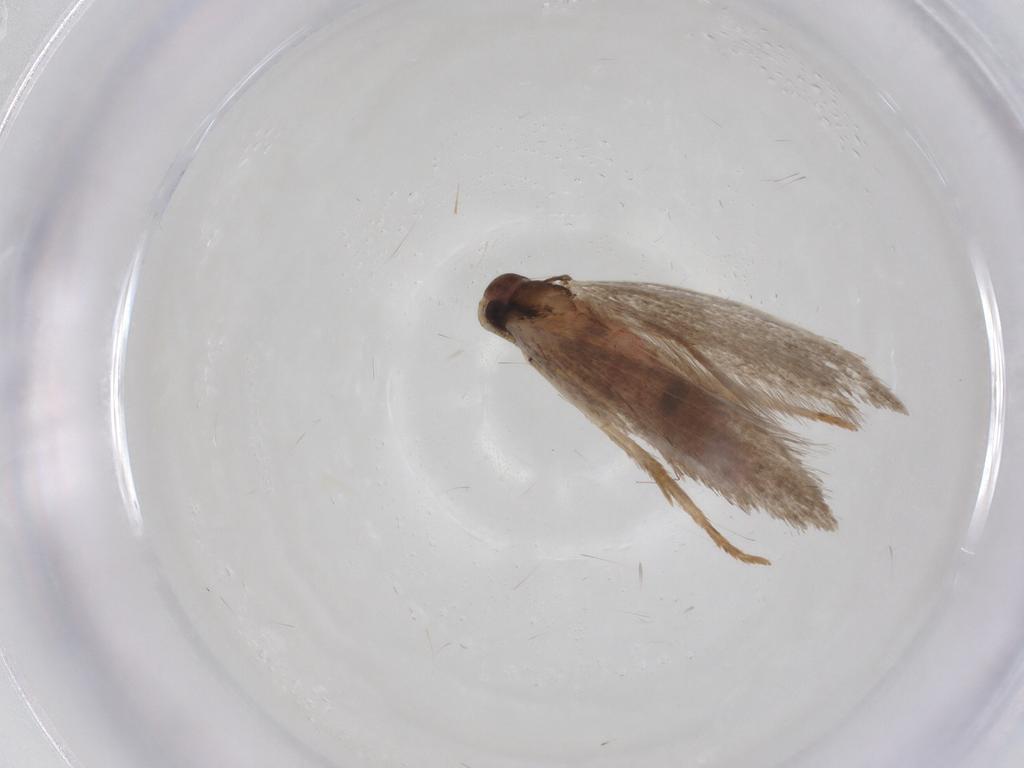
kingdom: Animalia
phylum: Arthropoda
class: Insecta
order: Lepidoptera
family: Gelechiidae
